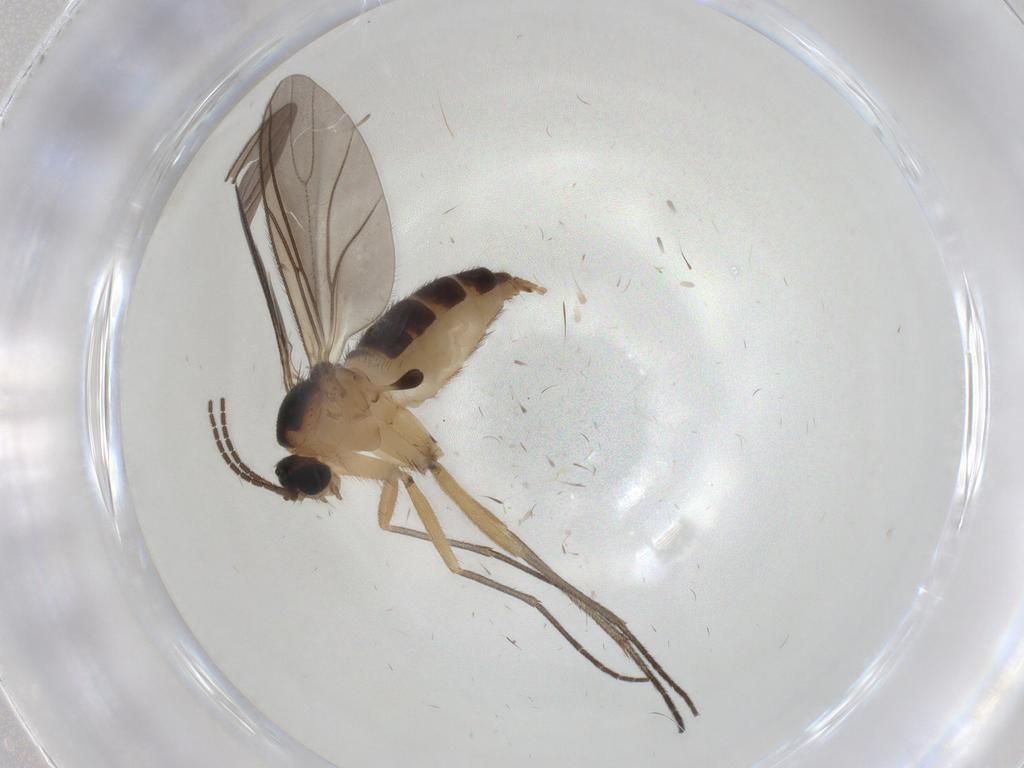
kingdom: Animalia
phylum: Arthropoda
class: Insecta
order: Diptera
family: Sciaridae
